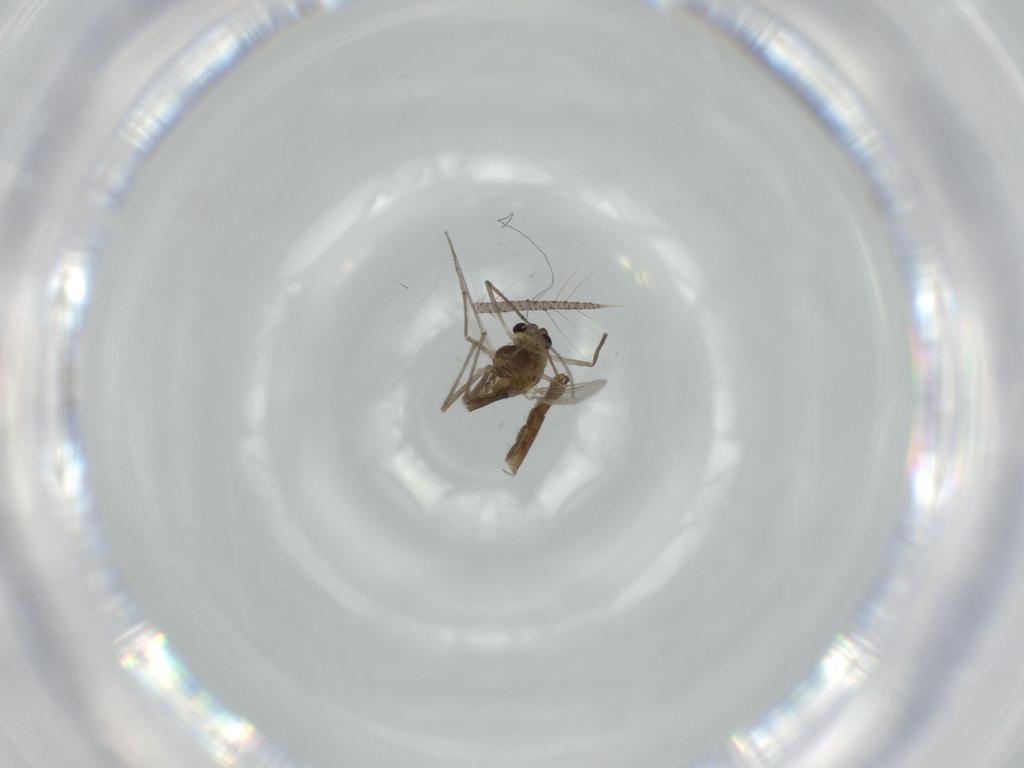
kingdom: Animalia
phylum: Arthropoda
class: Insecta
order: Diptera
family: Chironomidae
